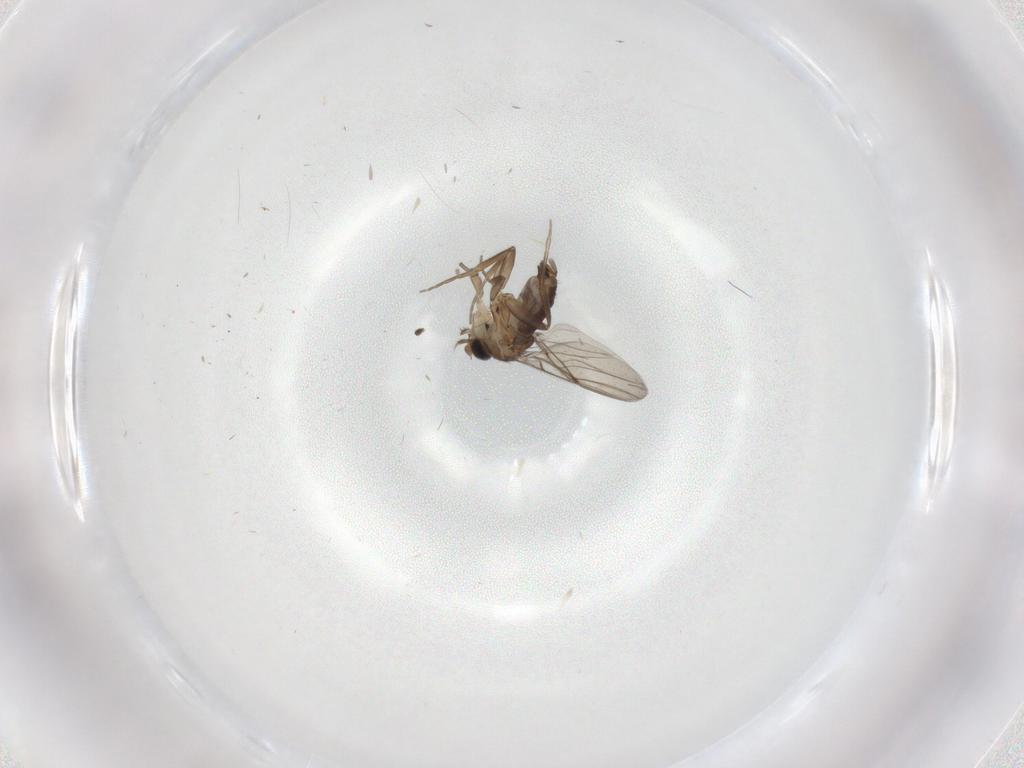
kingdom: Animalia
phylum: Arthropoda
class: Insecta
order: Diptera
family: Phoridae
